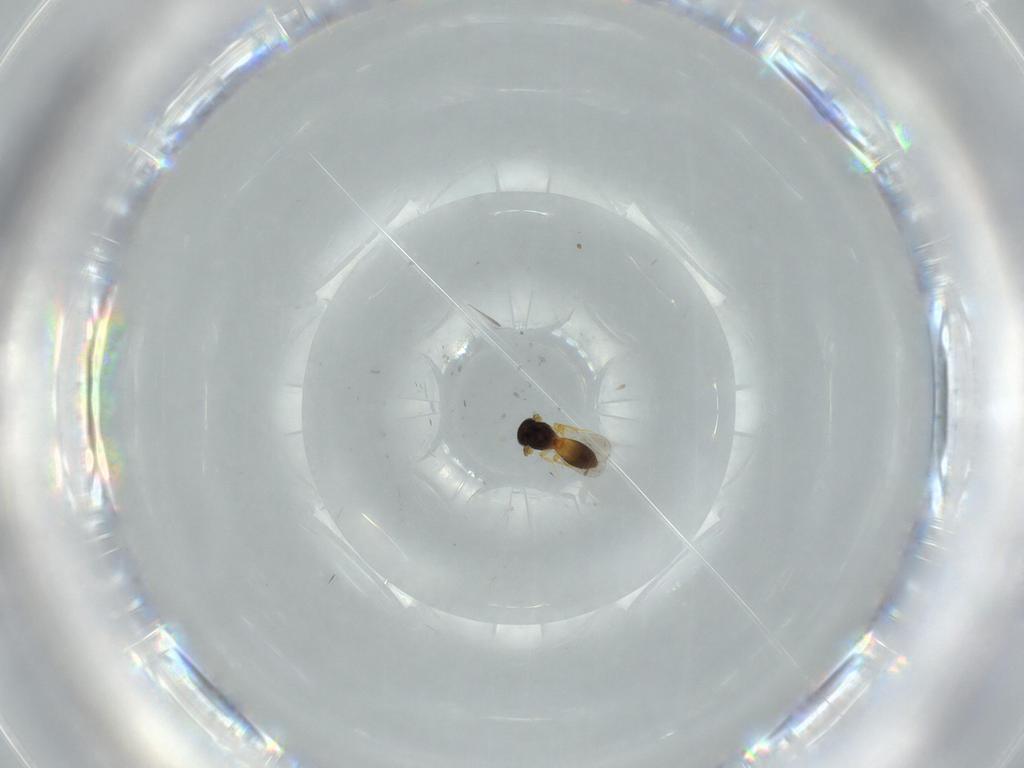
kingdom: Animalia
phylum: Arthropoda
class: Insecta
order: Hymenoptera
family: Platygastridae
